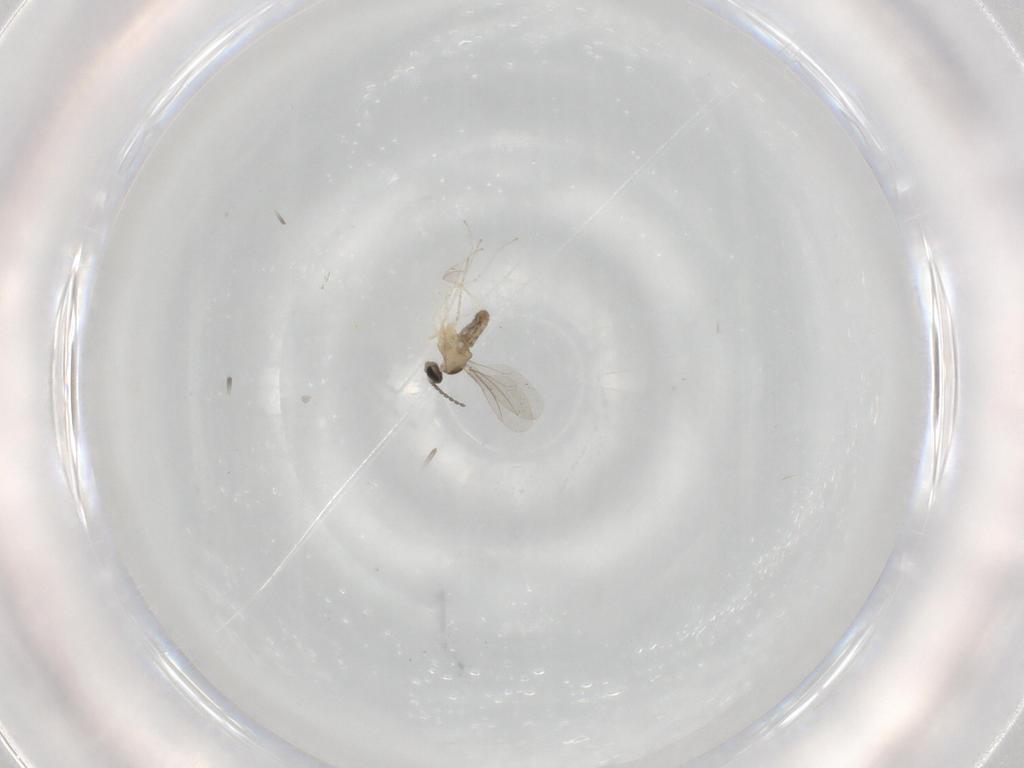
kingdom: Animalia
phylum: Arthropoda
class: Insecta
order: Diptera
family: Cecidomyiidae
